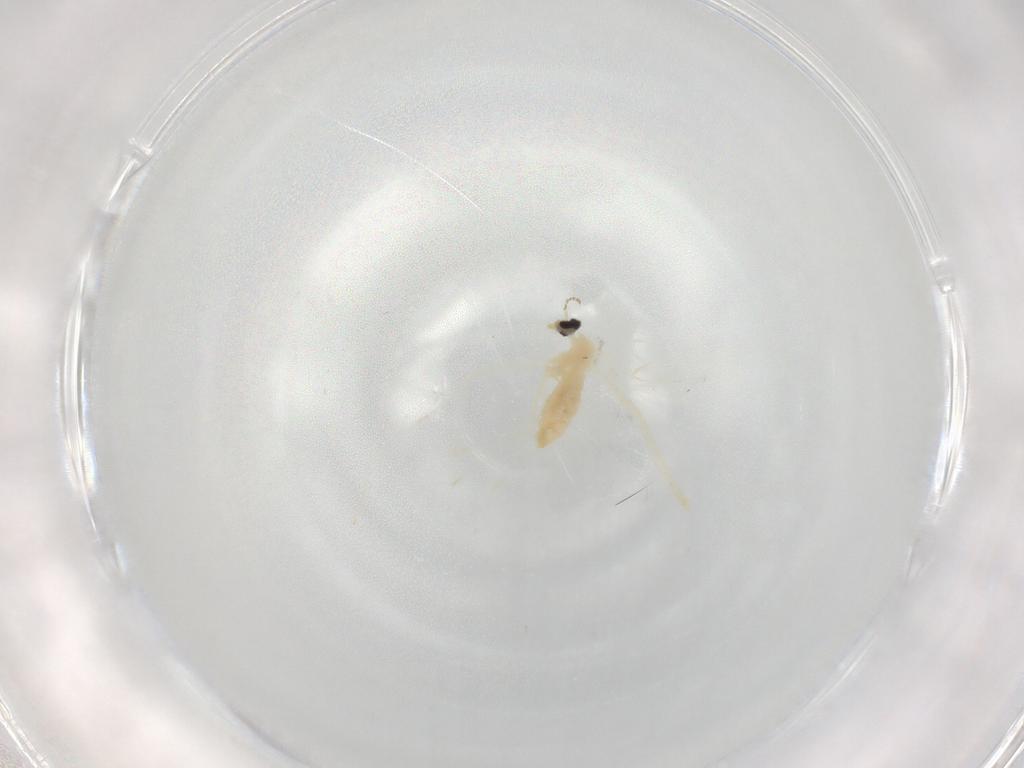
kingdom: Animalia
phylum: Arthropoda
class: Insecta
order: Diptera
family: Cecidomyiidae
